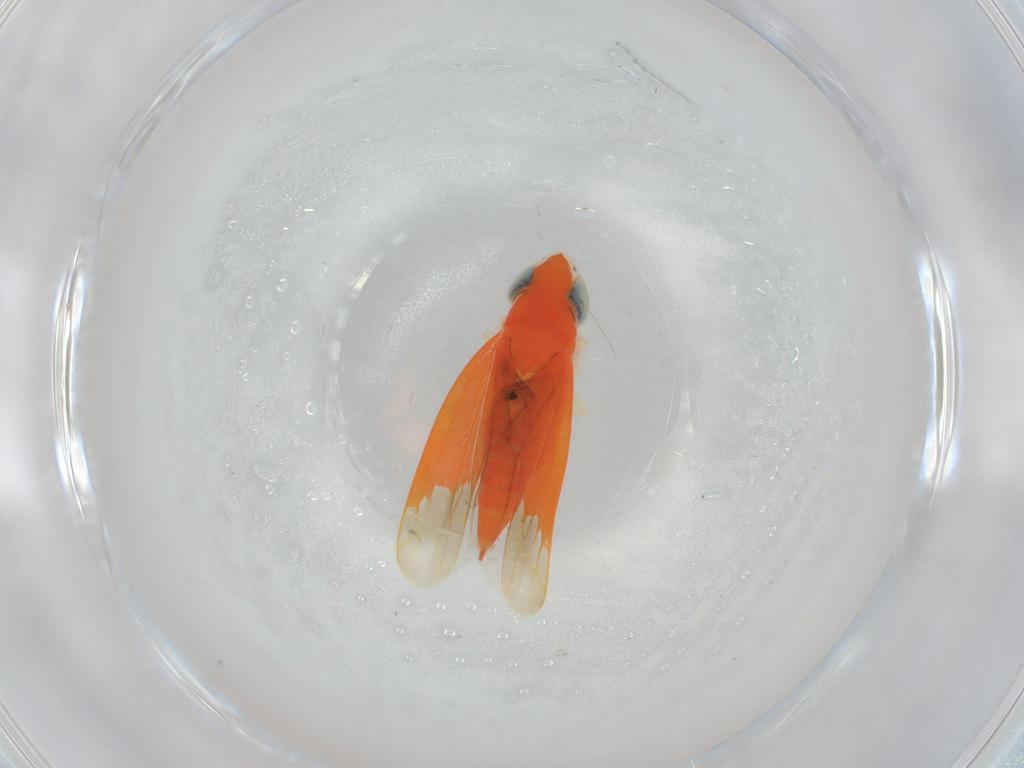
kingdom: Animalia
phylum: Arthropoda
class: Insecta
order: Hemiptera
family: Cicadellidae
